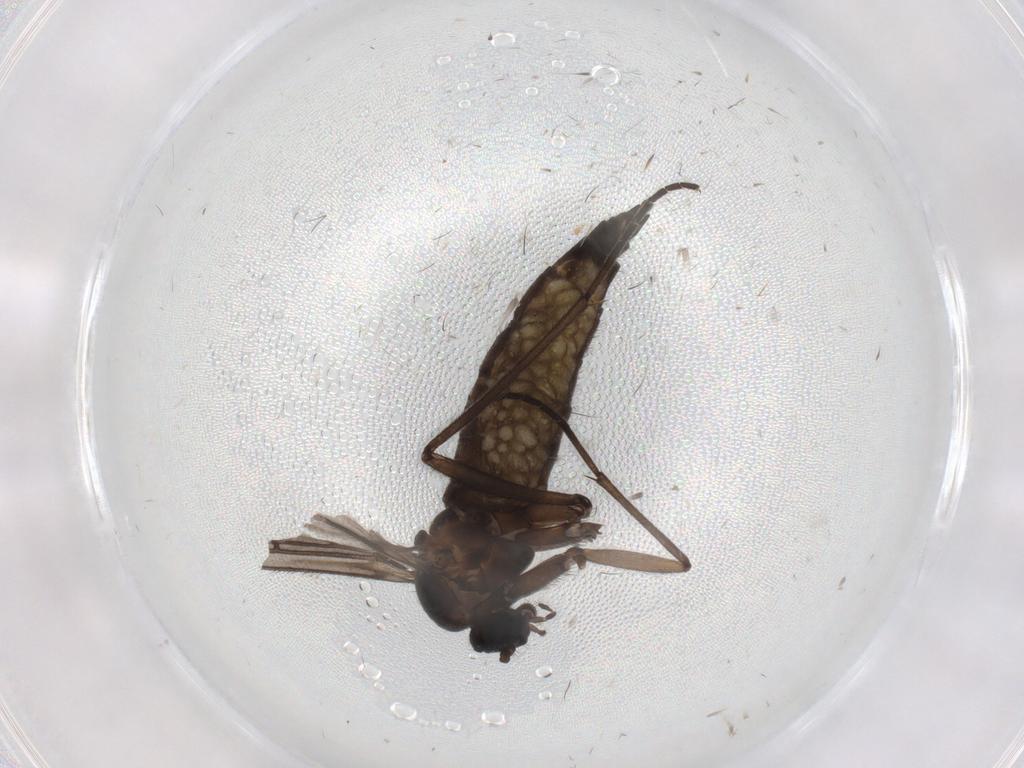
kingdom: Animalia
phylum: Arthropoda
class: Insecta
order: Diptera
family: Sciaridae
